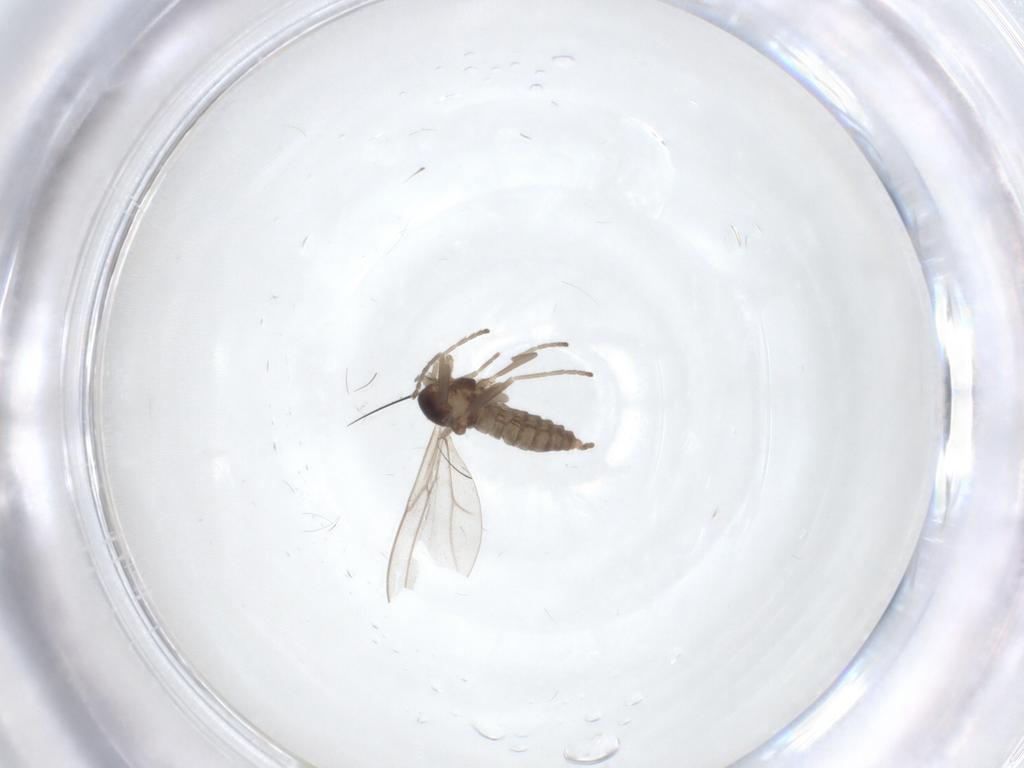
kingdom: Animalia
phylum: Arthropoda
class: Insecta
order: Diptera
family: Cecidomyiidae
